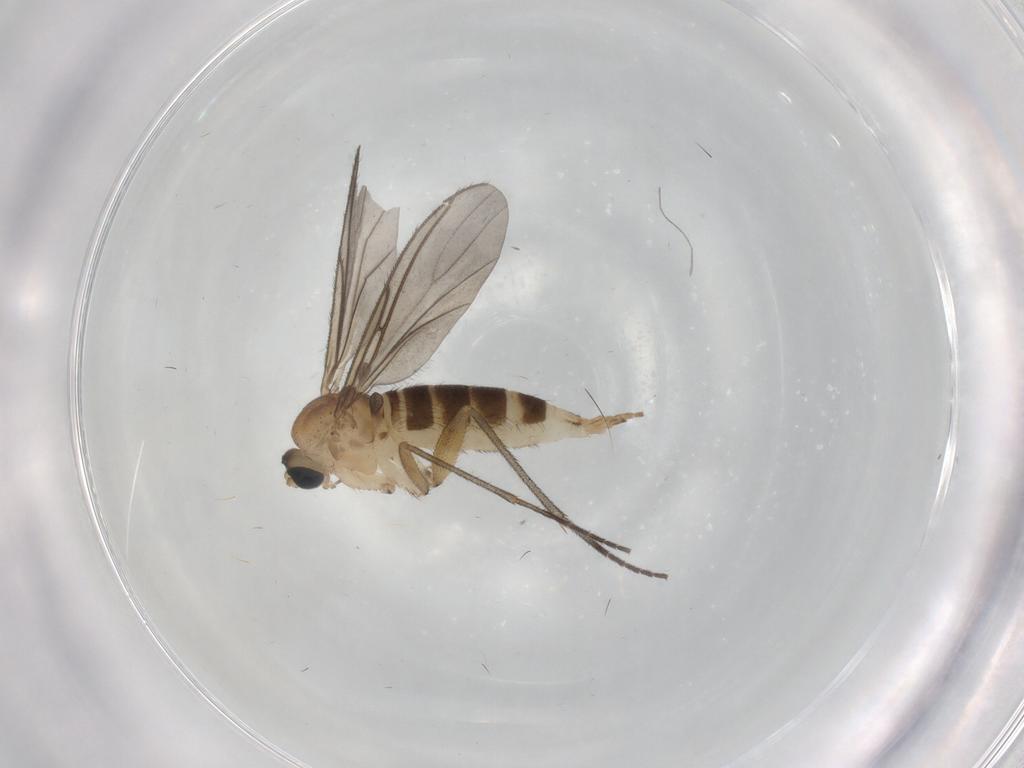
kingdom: Animalia
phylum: Arthropoda
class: Insecta
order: Diptera
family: Sciaridae
